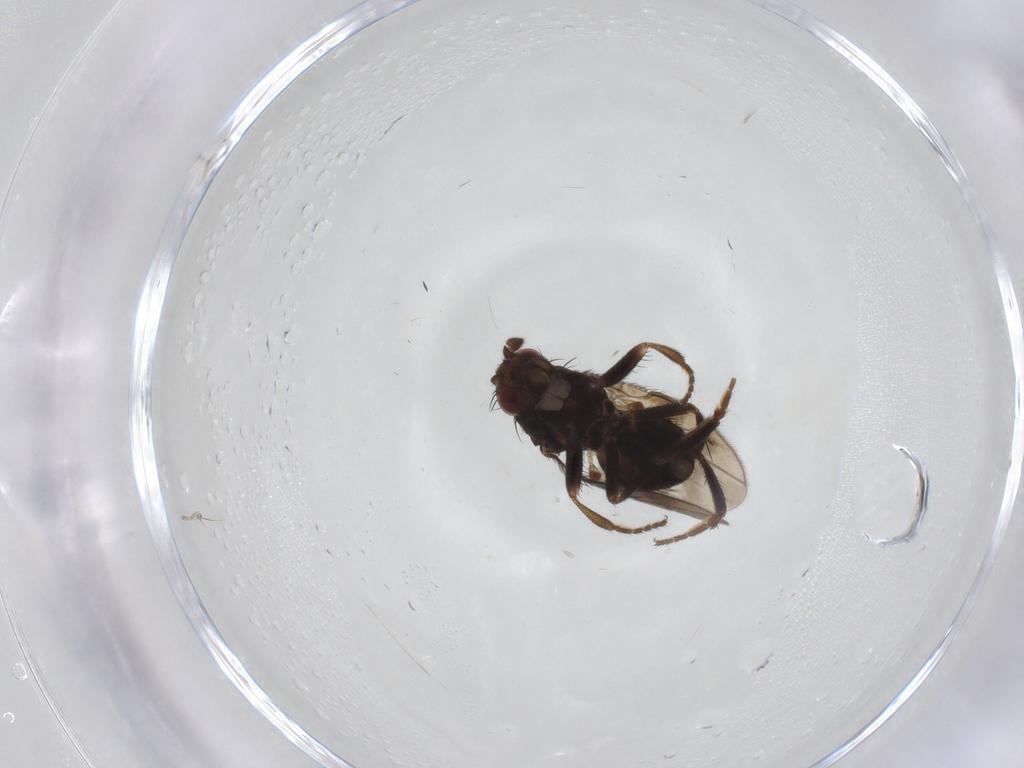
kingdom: Animalia
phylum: Arthropoda
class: Insecta
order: Diptera
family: Sphaeroceridae
